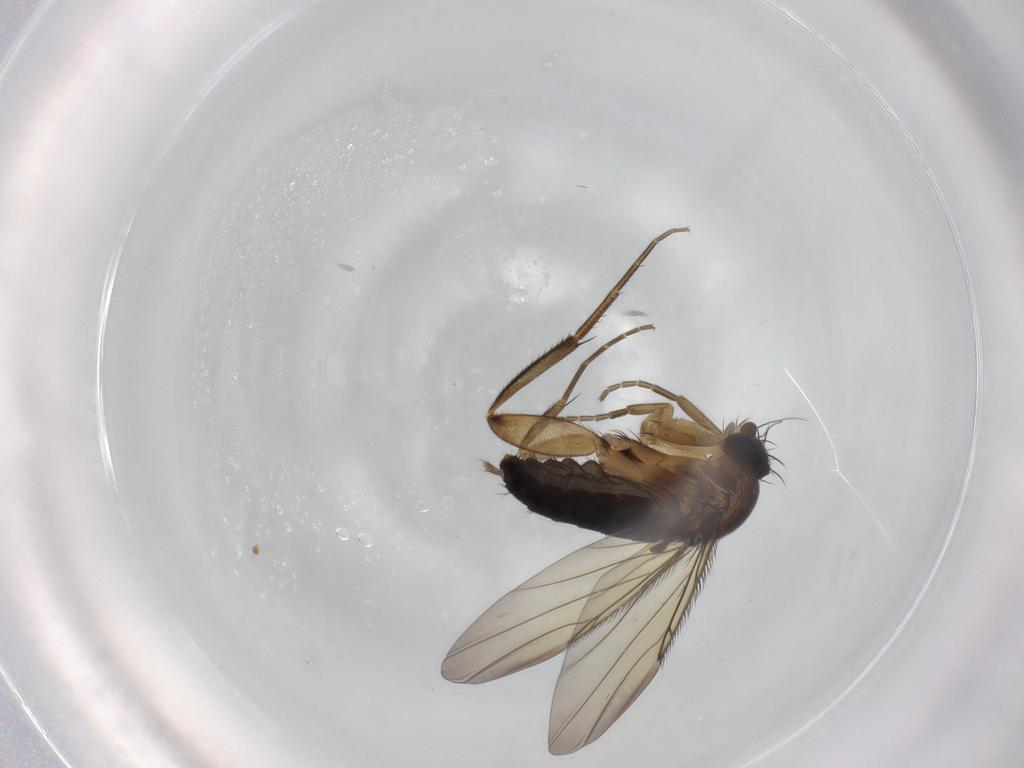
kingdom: Animalia
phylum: Arthropoda
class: Insecta
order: Diptera
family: Phoridae
